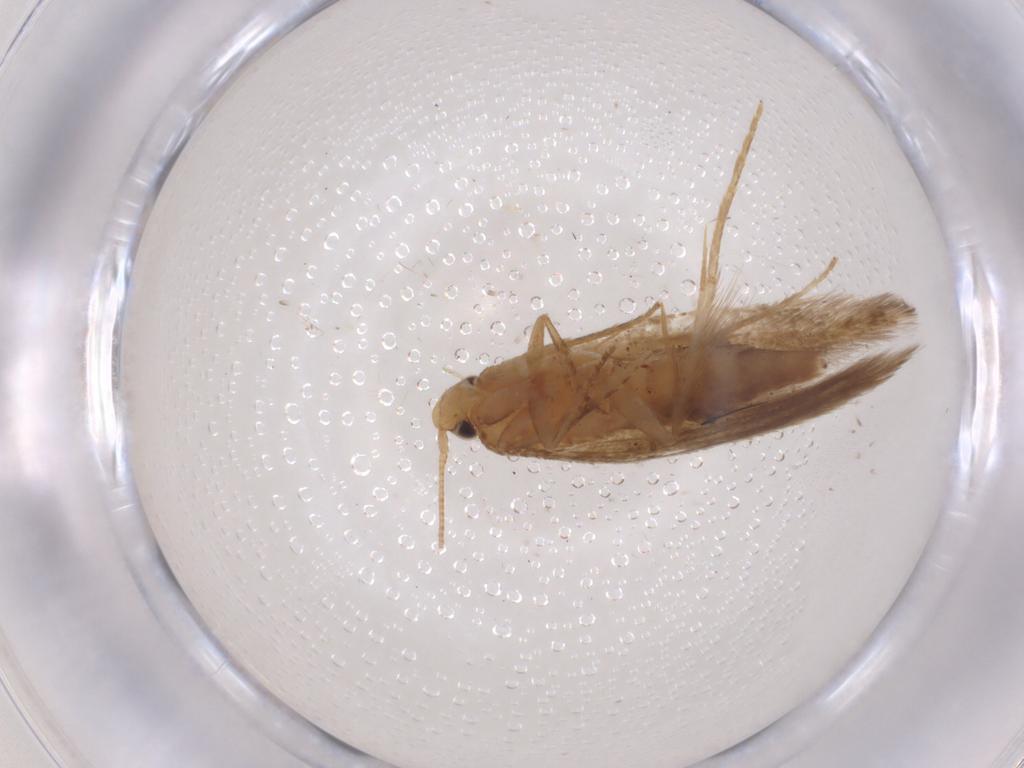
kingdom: Animalia
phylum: Arthropoda
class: Insecta
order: Lepidoptera
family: Tineidae
